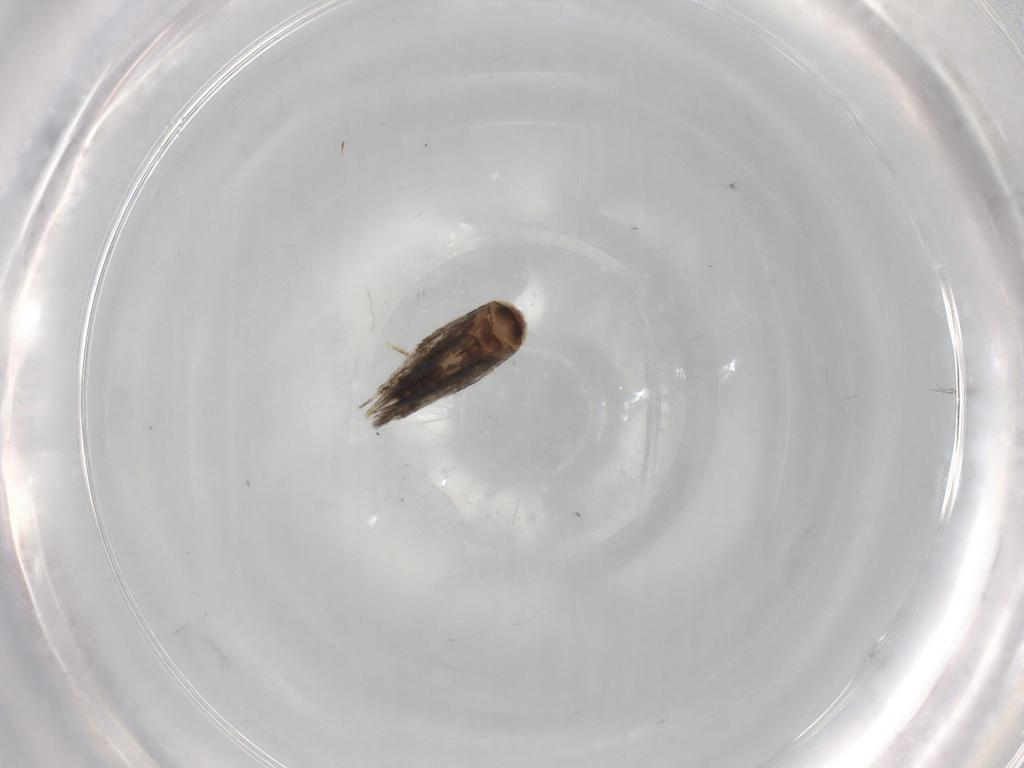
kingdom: Animalia
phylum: Arthropoda
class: Insecta
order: Lepidoptera
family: Nepticulidae
